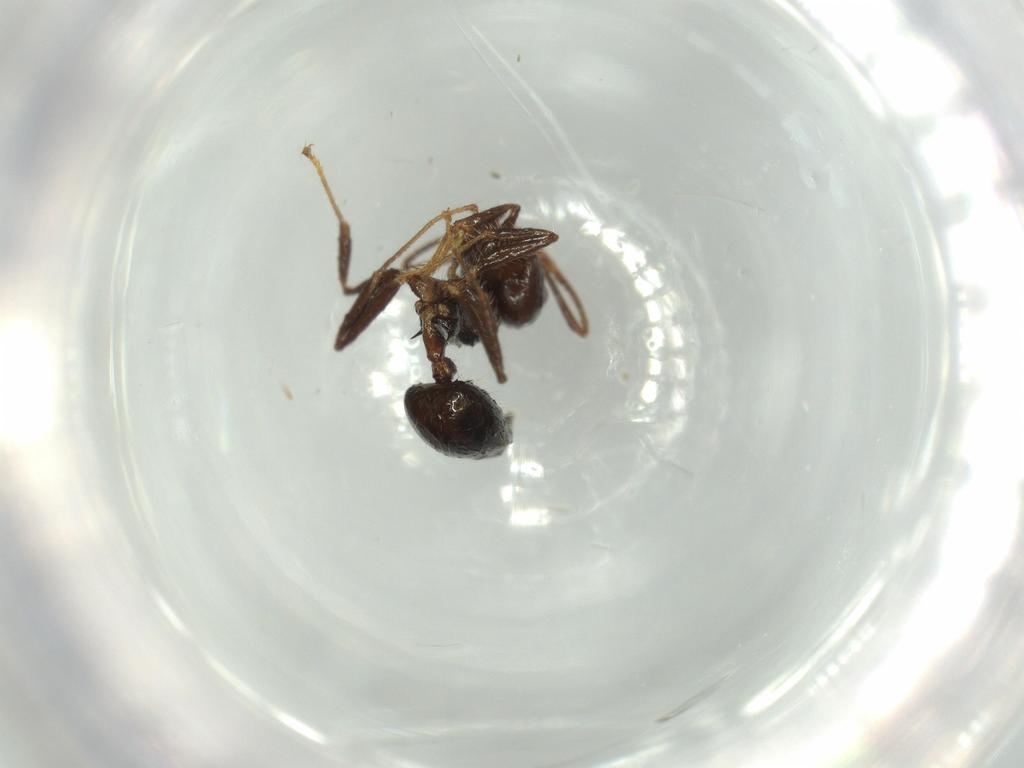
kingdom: Animalia
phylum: Arthropoda
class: Insecta
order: Hymenoptera
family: Formicidae
